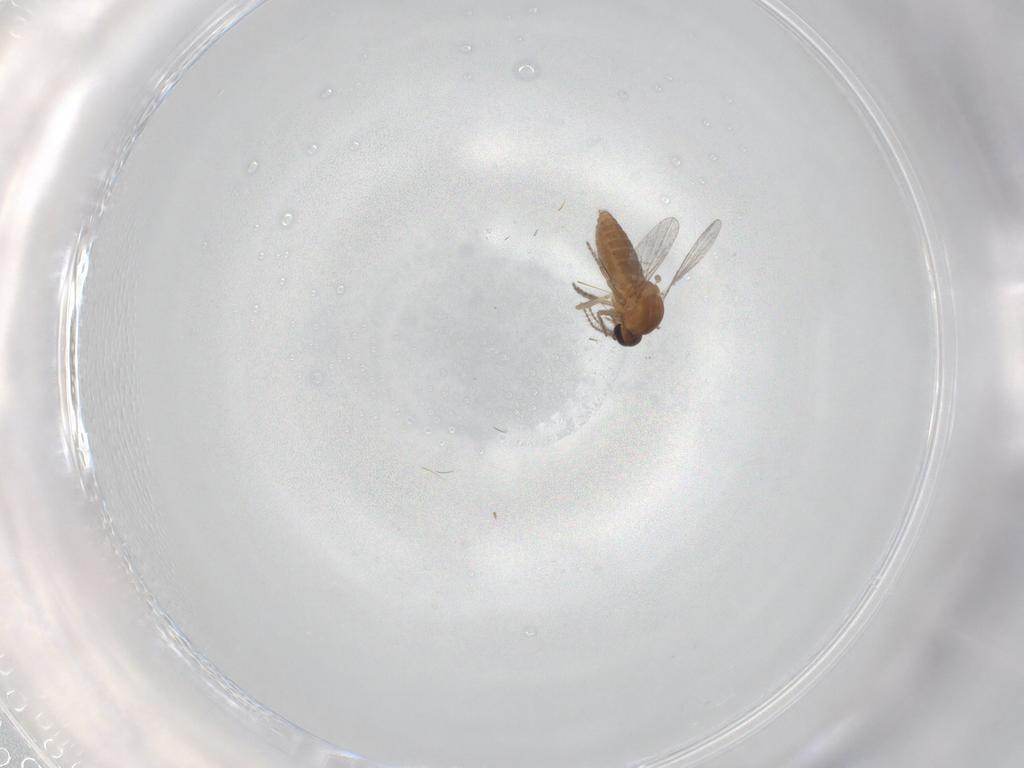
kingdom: Animalia
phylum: Arthropoda
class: Insecta
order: Diptera
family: Ceratopogonidae
